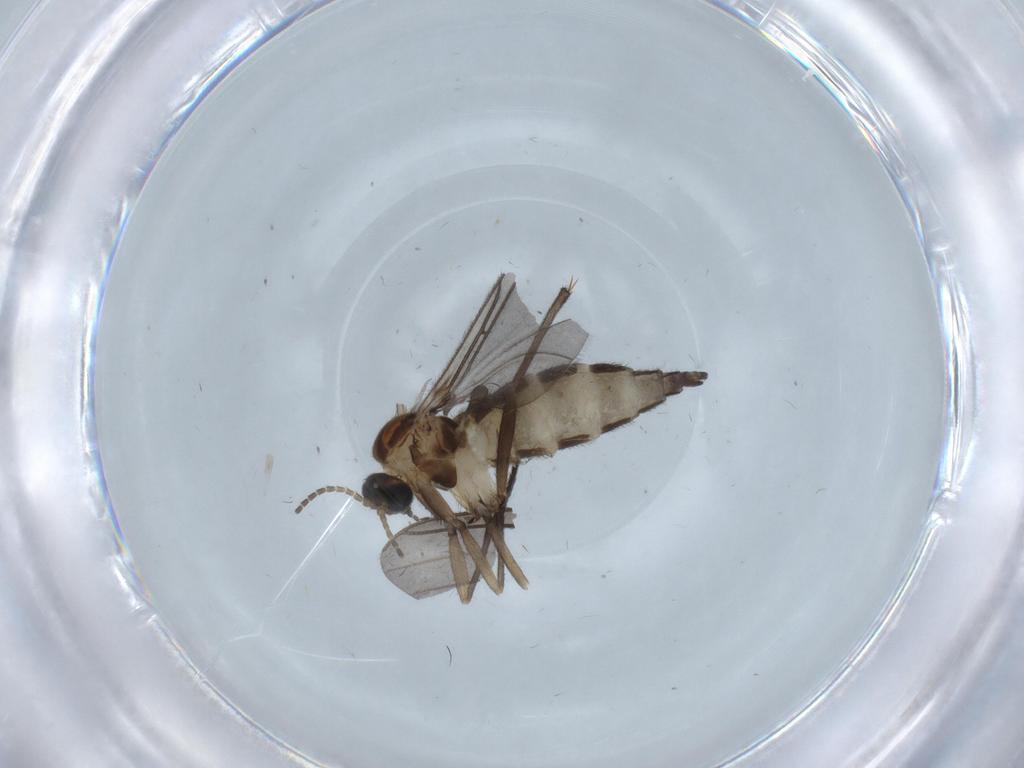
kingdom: Animalia
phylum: Arthropoda
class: Insecta
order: Diptera
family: Sciaridae
